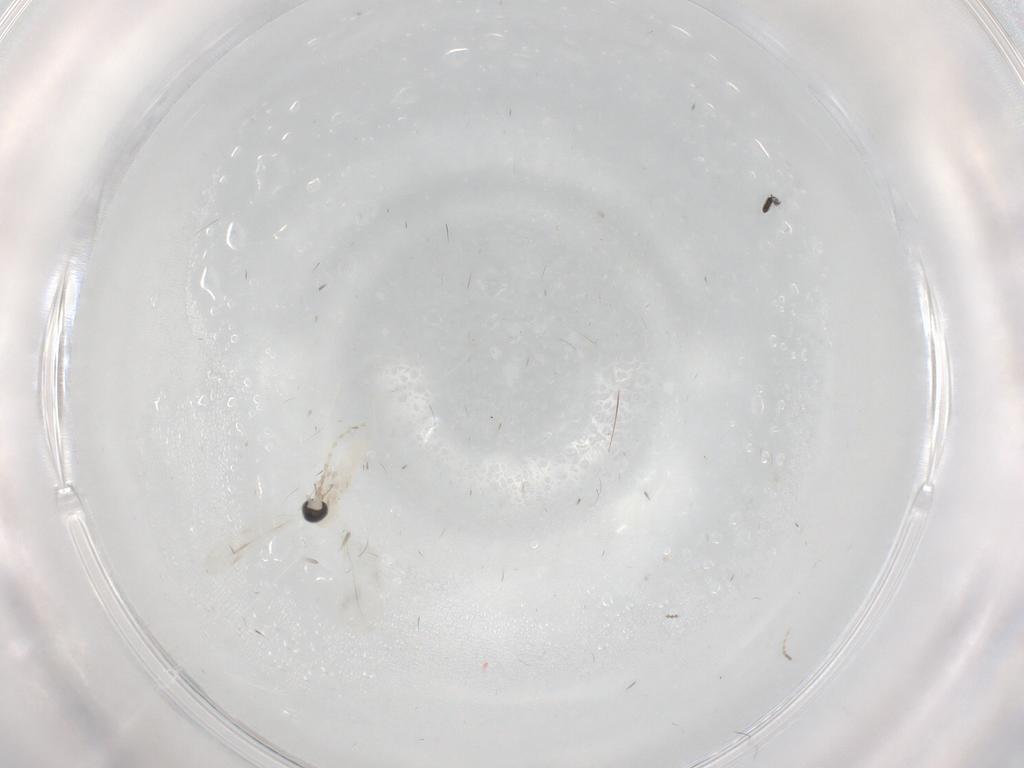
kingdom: Animalia
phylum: Arthropoda
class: Insecta
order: Diptera
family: Cecidomyiidae
